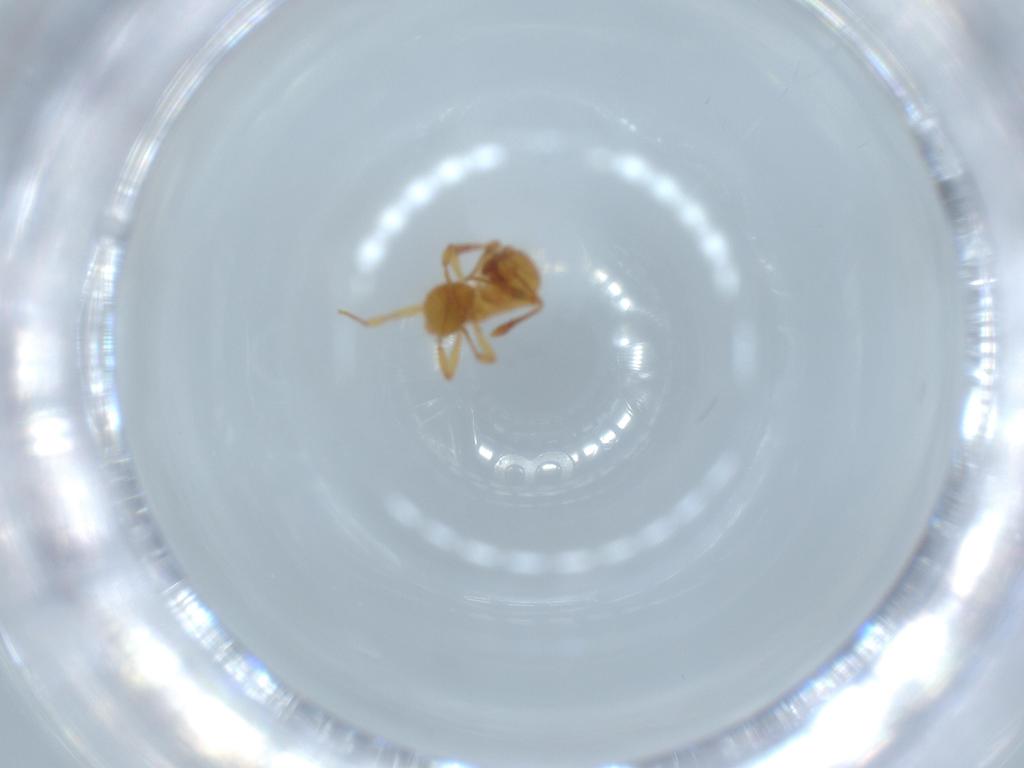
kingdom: Animalia
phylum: Arthropoda
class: Insecta
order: Hymenoptera
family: Formicidae
